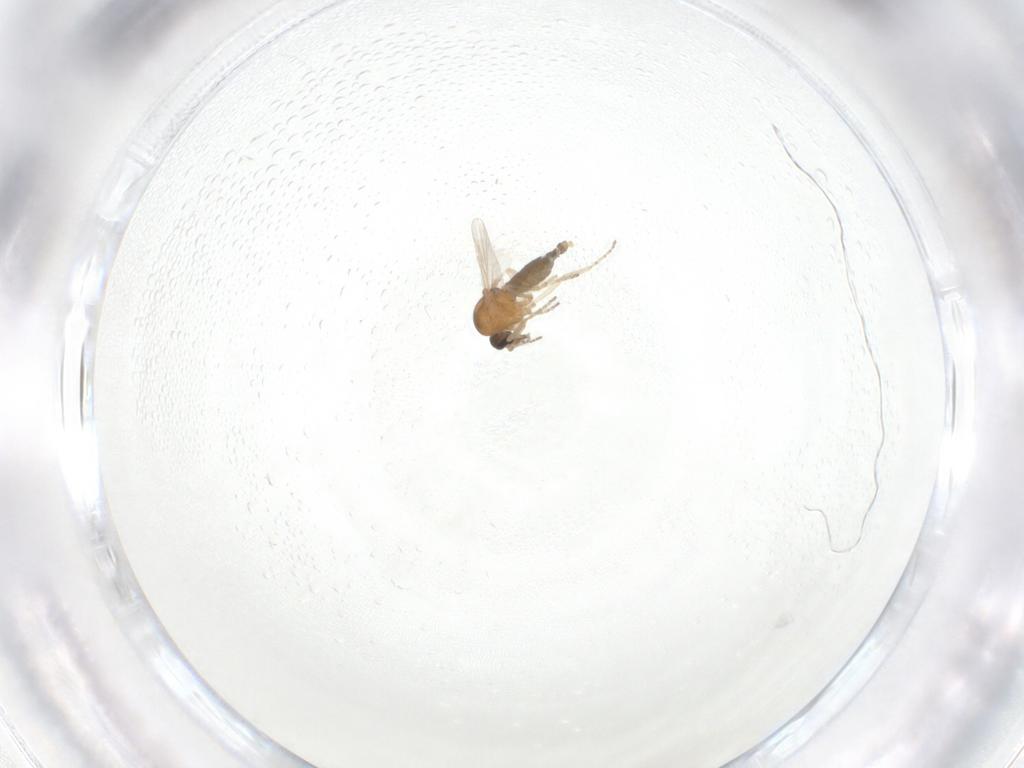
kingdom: Animalia
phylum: Arthropoda
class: Insecta
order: Diptera
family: Ceratopogonidae
